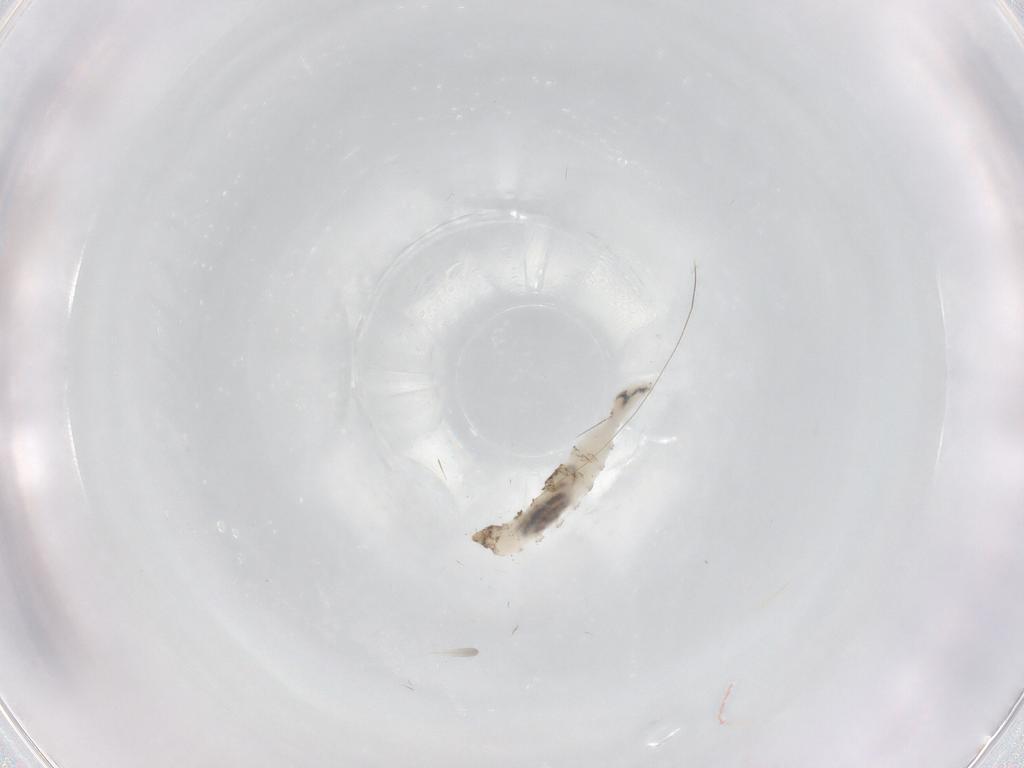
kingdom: Animalia
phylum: Arthropoda
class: Insecta
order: Diptera
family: Cecidomyiidae
